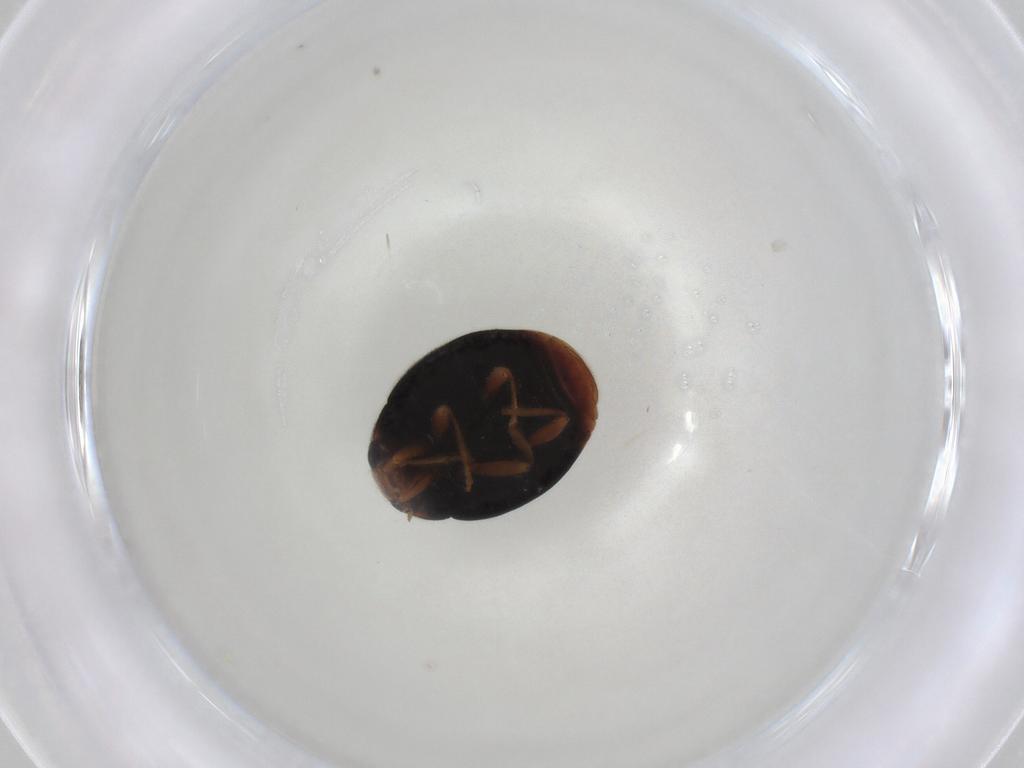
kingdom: Animalia
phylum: Arthropoda
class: Insecta
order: Coleoptera
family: Coccinellidae
